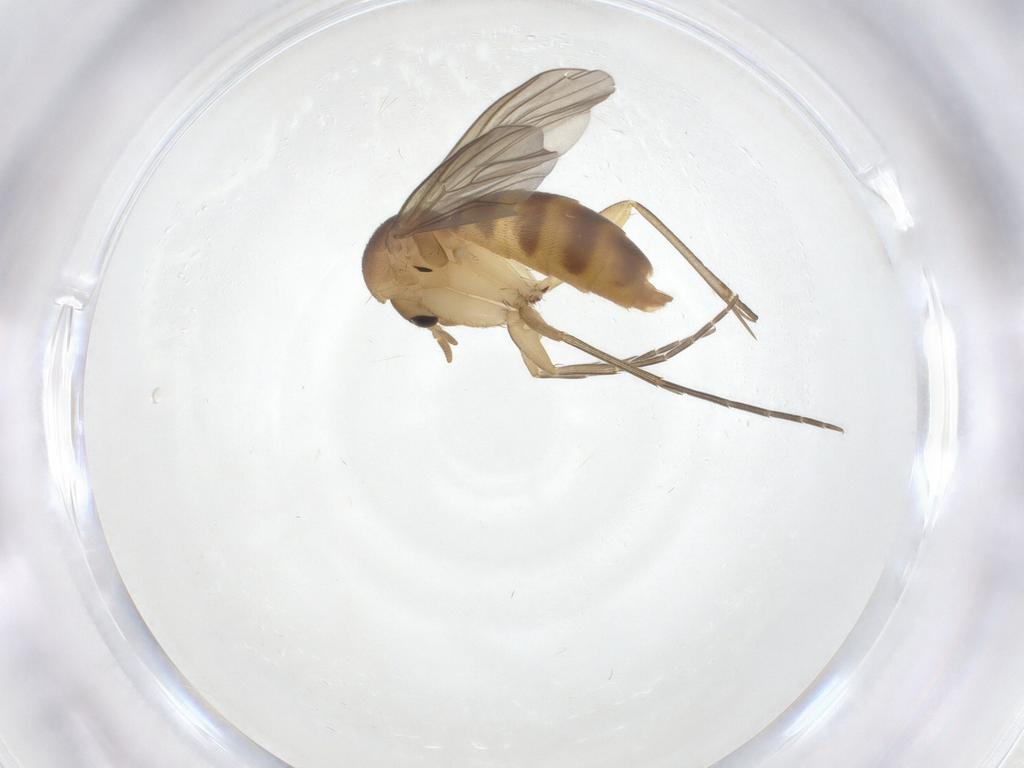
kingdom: Animalia
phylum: Arthropoda
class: Insecta
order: Diptera
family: Mycetophilidae
